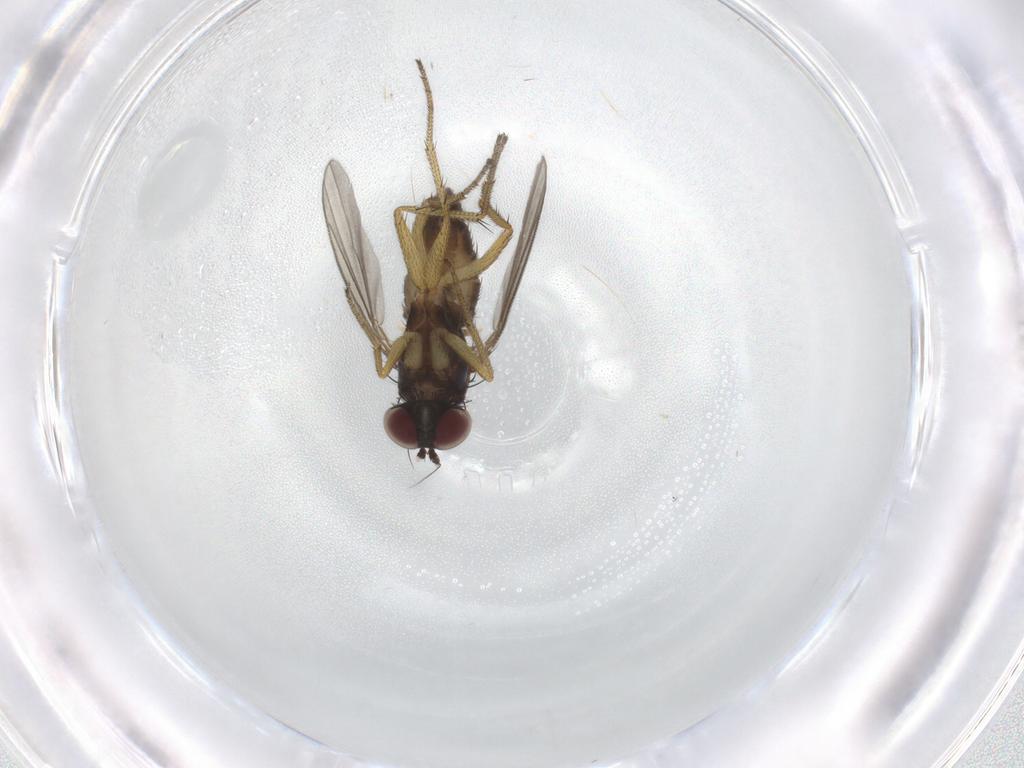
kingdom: Animalia
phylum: Arthropoda
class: Insecta
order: Diptera
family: Dolichopodidae
